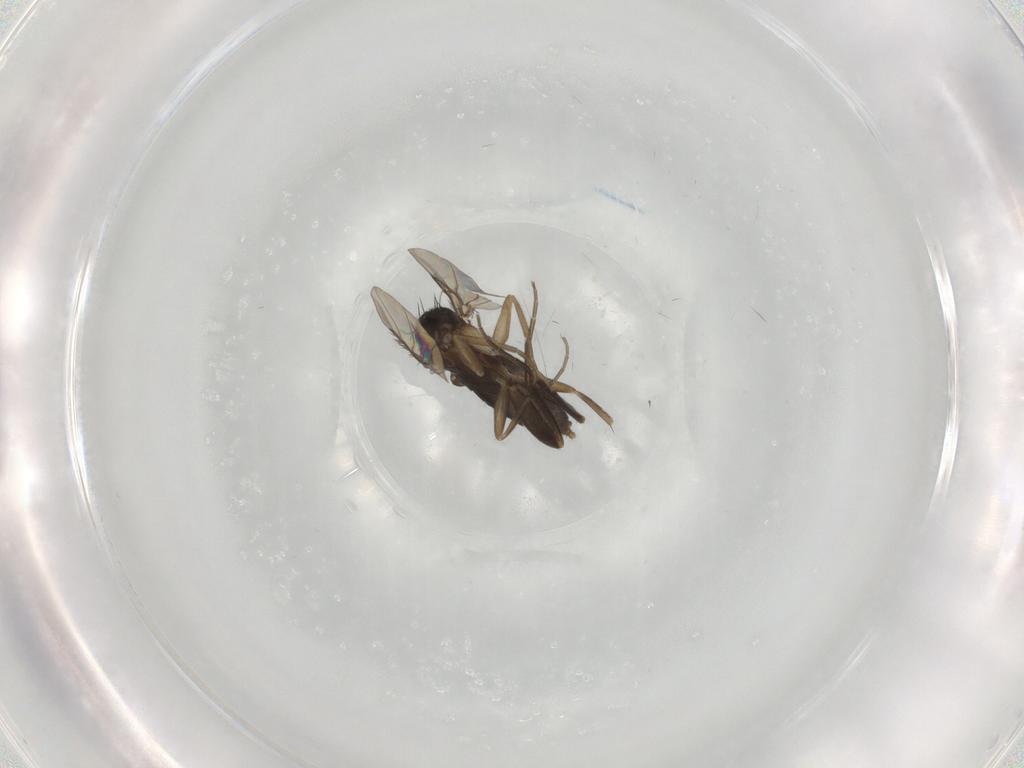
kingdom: Animalia
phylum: Arthropoda
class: Insecta
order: Diptera
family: Phoridae
